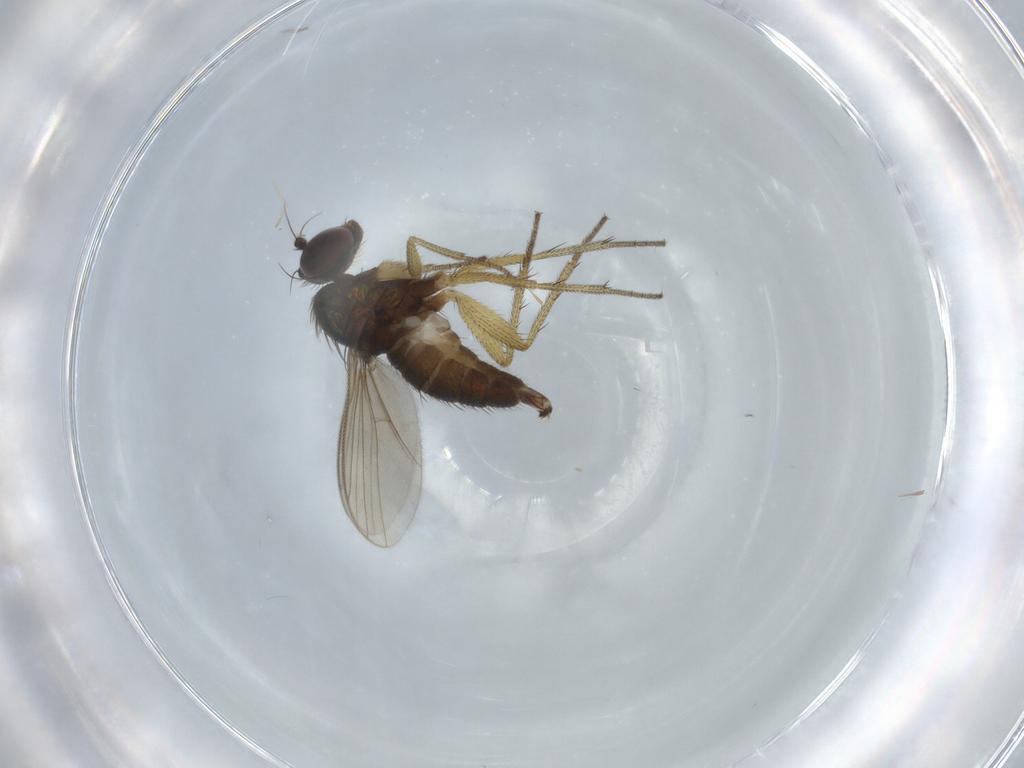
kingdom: Animalia
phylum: Arthropoda
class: Insecta
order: Diptera
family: Dolichopodidae
